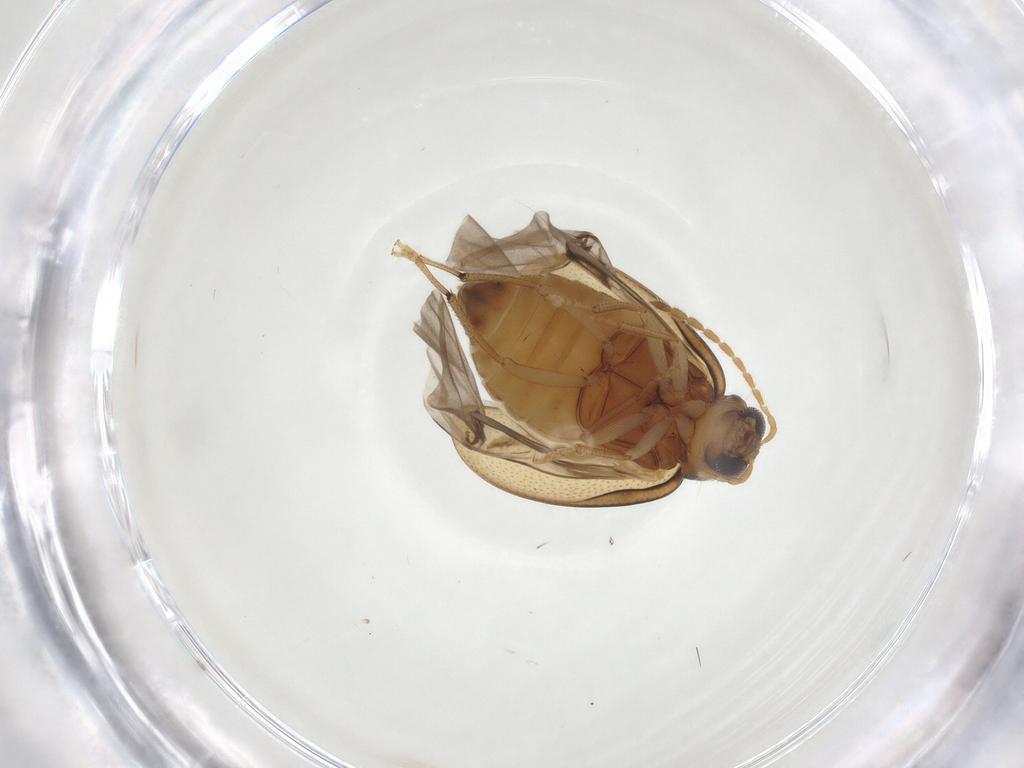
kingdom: Animalia
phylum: Arthropoda
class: Insecta
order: Coleoptera
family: Chrysomelidae
